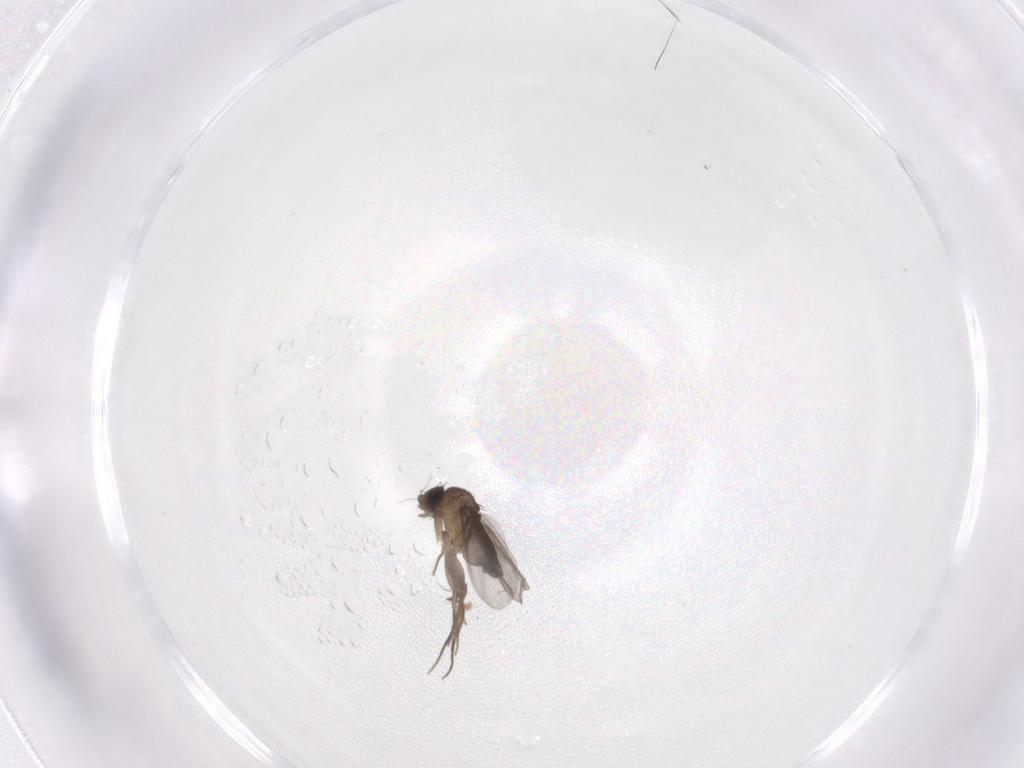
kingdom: Animalia
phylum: Arthropoda
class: Insecta
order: Diptera
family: Phoridae
